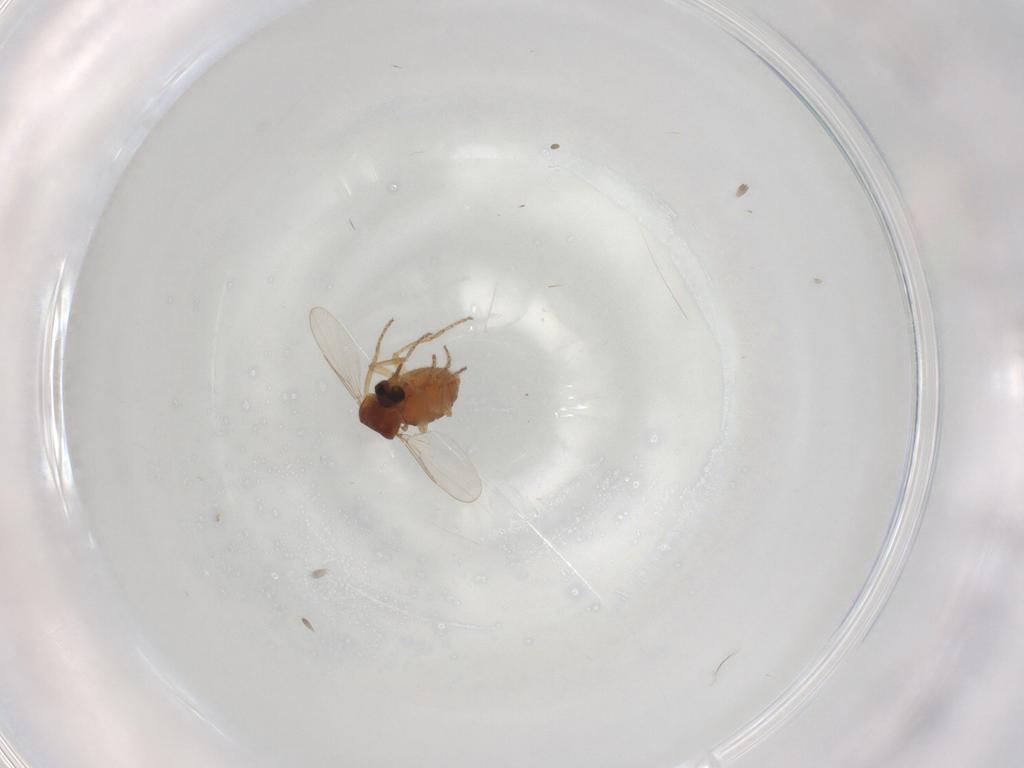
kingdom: Animalia
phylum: Arthropoda
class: Insecta
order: Diptera
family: Ceratopogonidae
